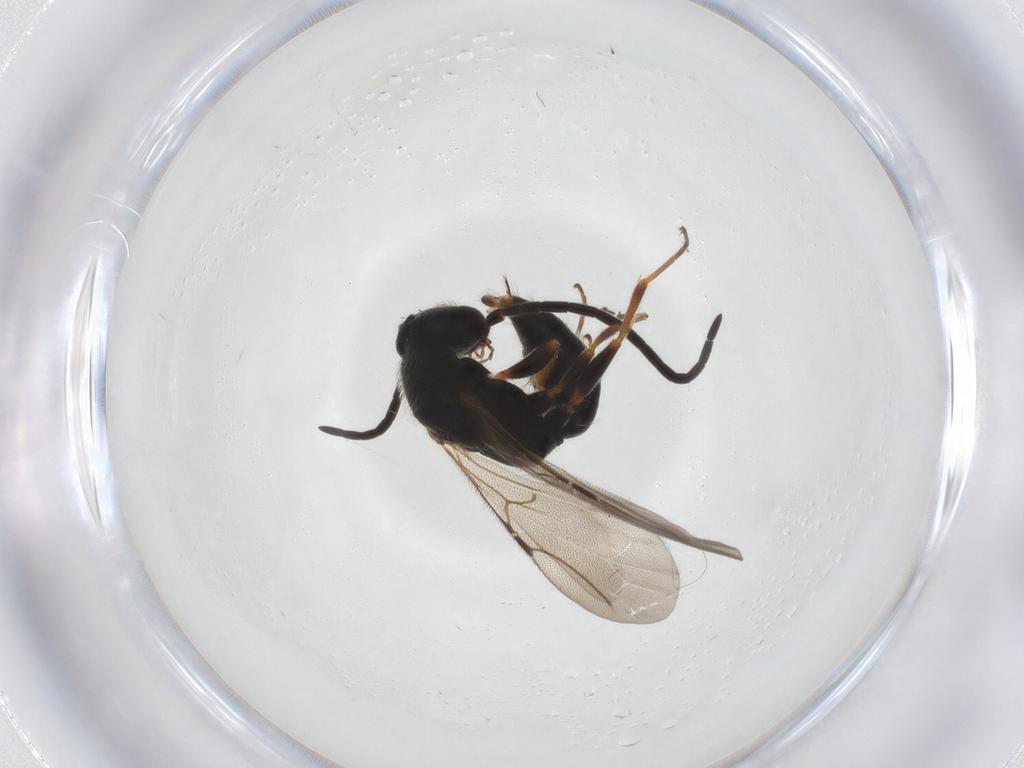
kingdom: Animalia
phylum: Arthropoda
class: Insecta
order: Hymenoptera
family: Bethylidae
